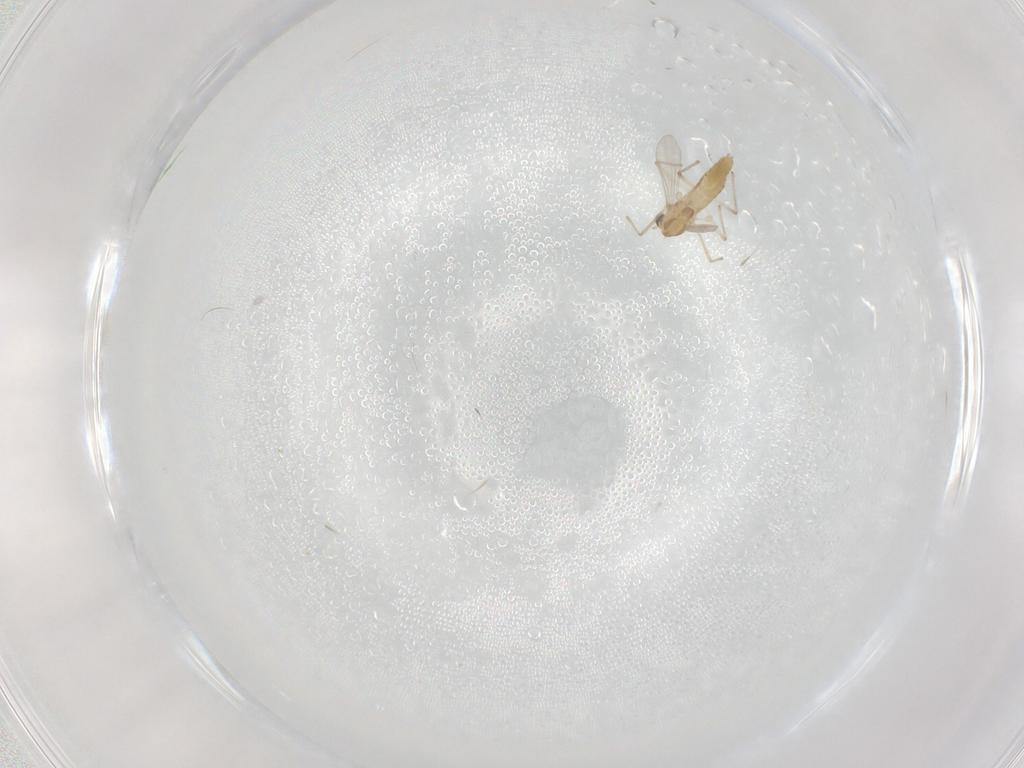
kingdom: Animalia
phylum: Arthropoda
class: Insecta
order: Diptera
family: Chironomidae
